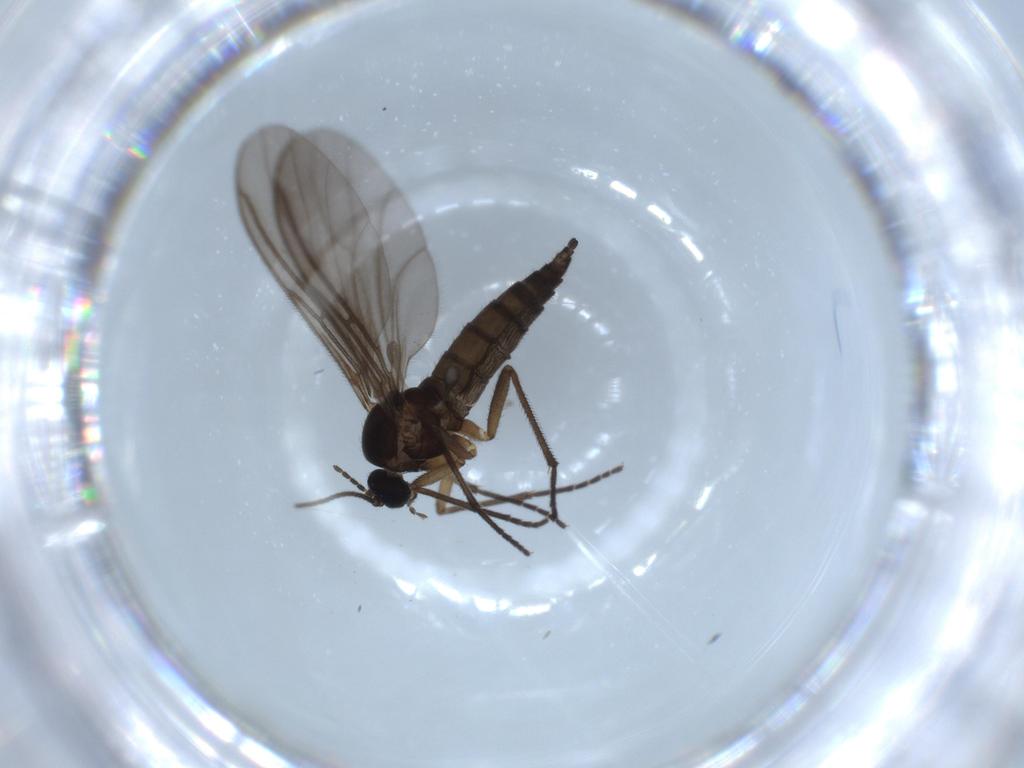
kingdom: Animalia
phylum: Arthropoda
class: Insecta
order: Diptera
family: Sciaridae
